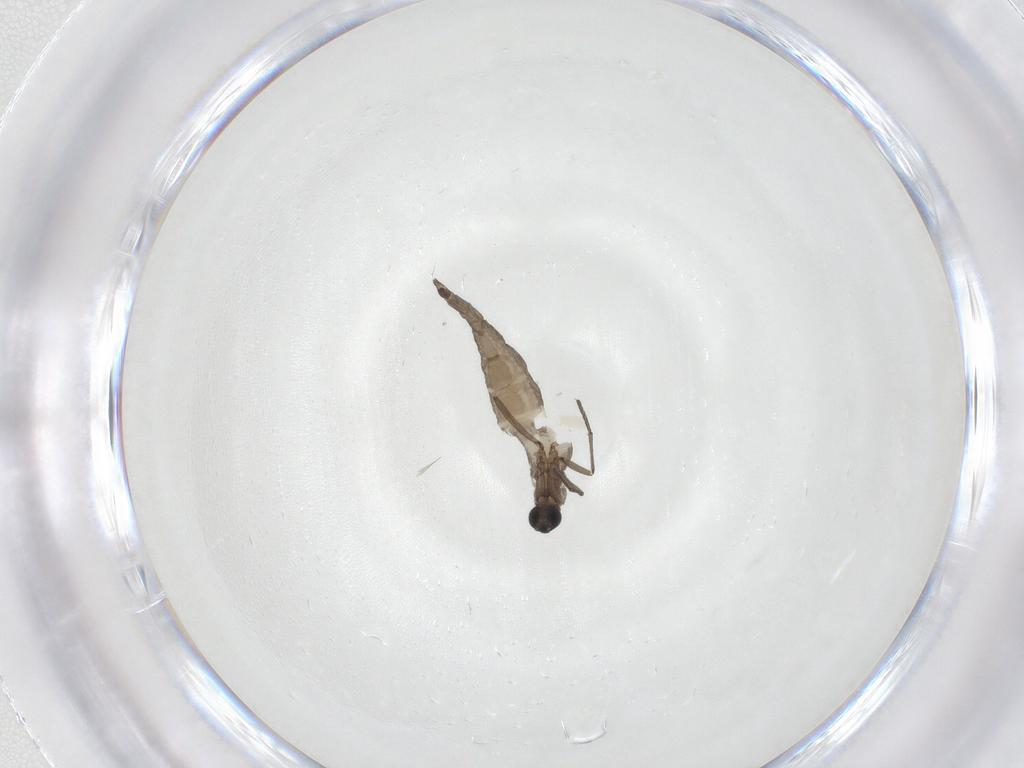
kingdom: Animalia
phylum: Arthropoda
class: Insecta
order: Diptera
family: Sciaridae
